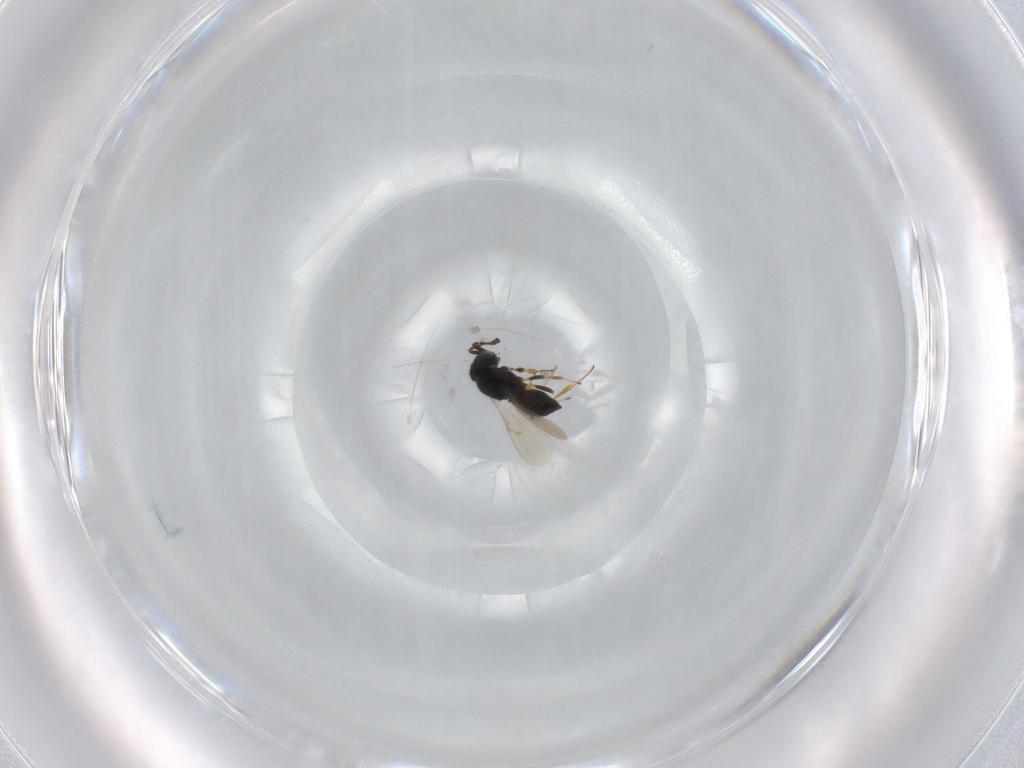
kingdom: Animalia
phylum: Arthropoda
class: Insecta
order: Hymenoptera
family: Scelionidae
